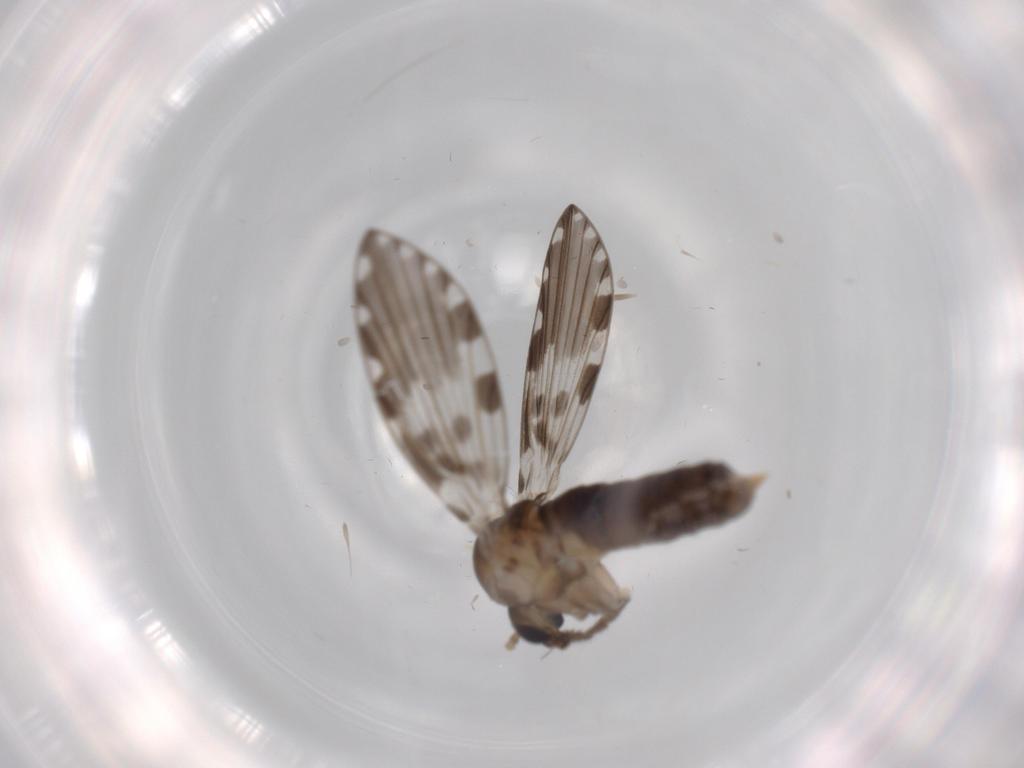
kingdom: Animalia
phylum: Arthropoda
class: Insecta
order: Diptera
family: Psychodidae
